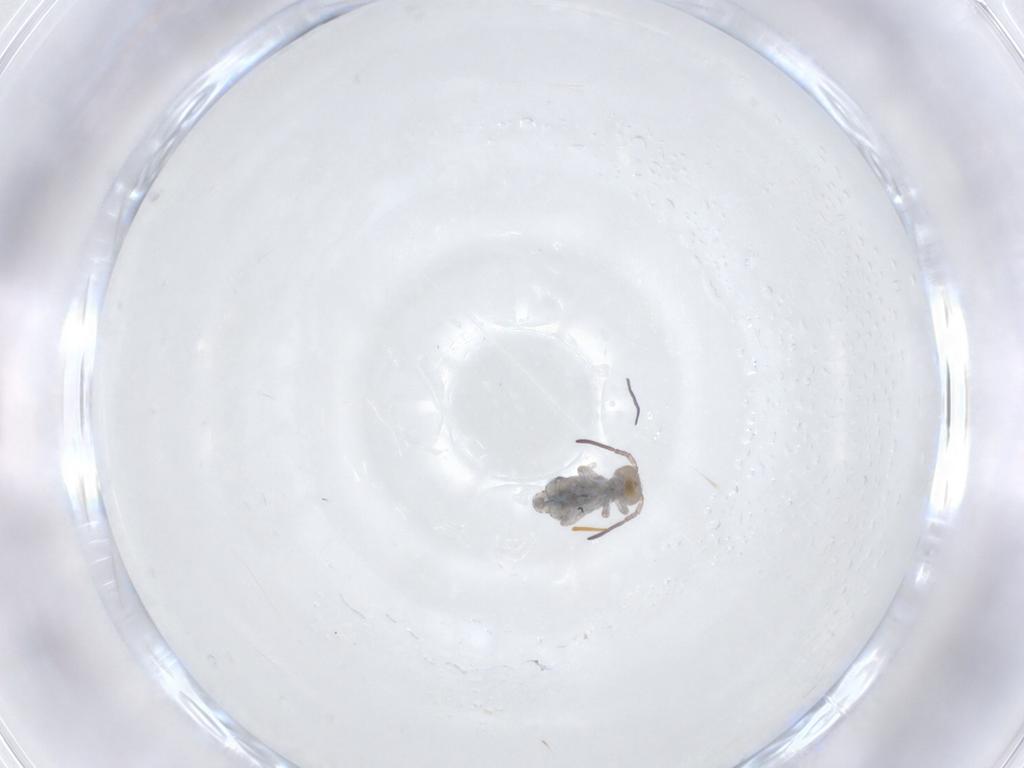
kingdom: Animalia
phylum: Arthropoda
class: Collembola
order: Symphypleona
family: Bourletiellidae
